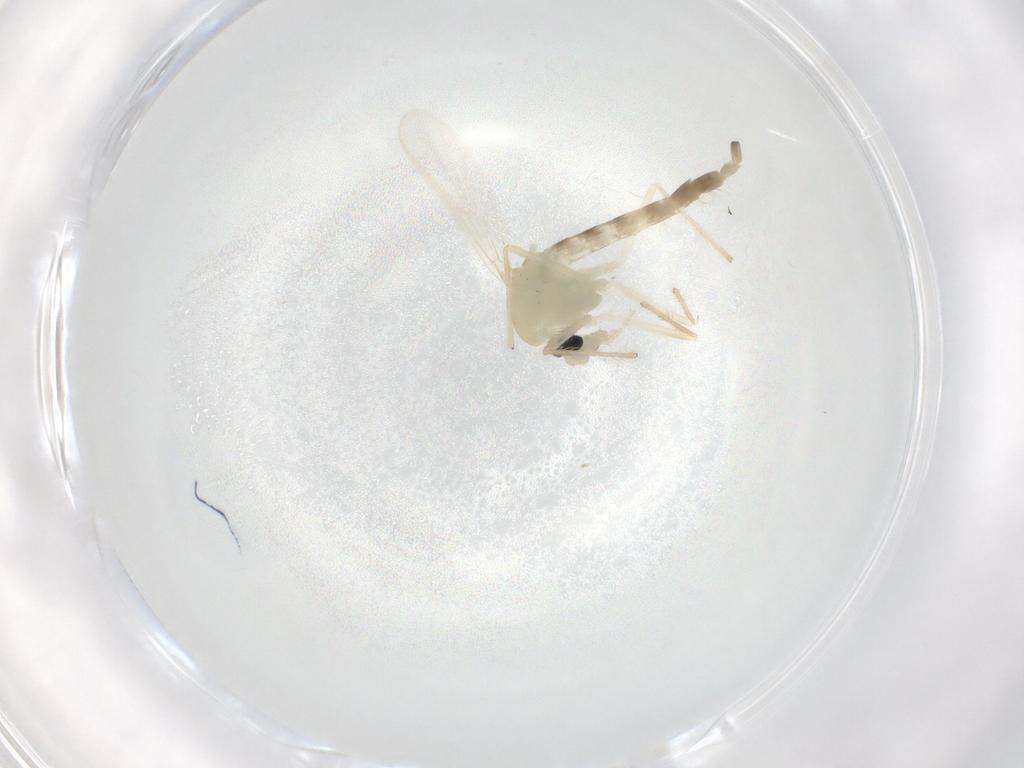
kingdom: Animalia
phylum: Arthropoda
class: Insecta
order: Diptera
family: Chironomidae
